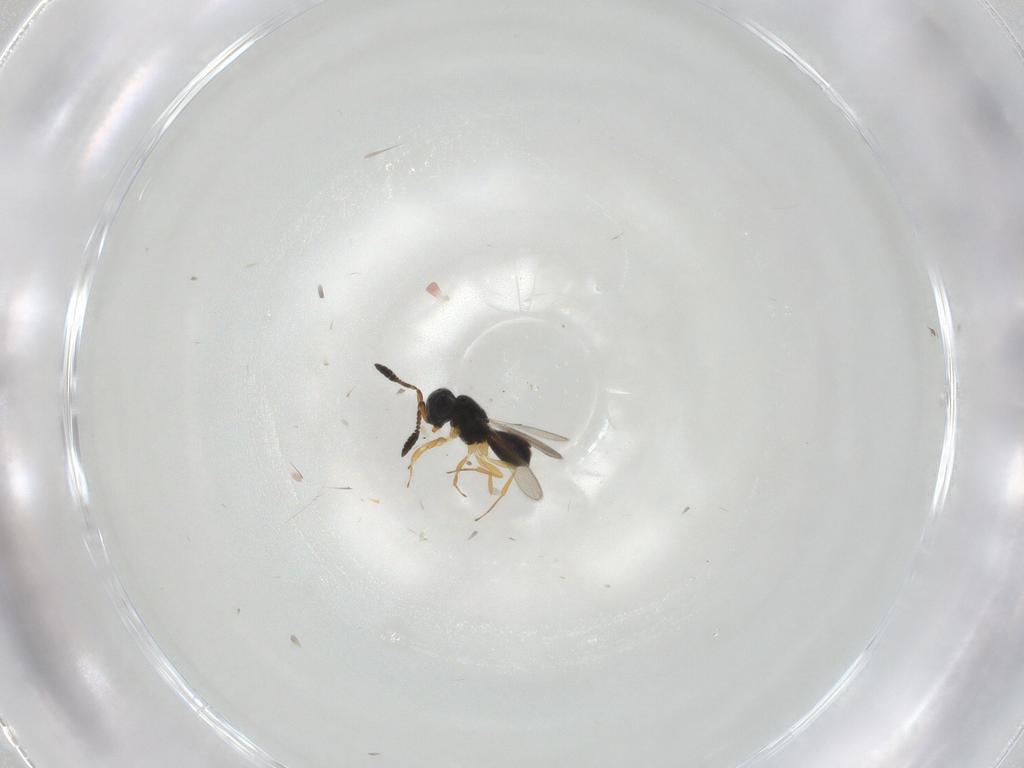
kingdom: Animalia
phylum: Arthropoda
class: Insecta
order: Hymenoptera
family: Scelionidae
